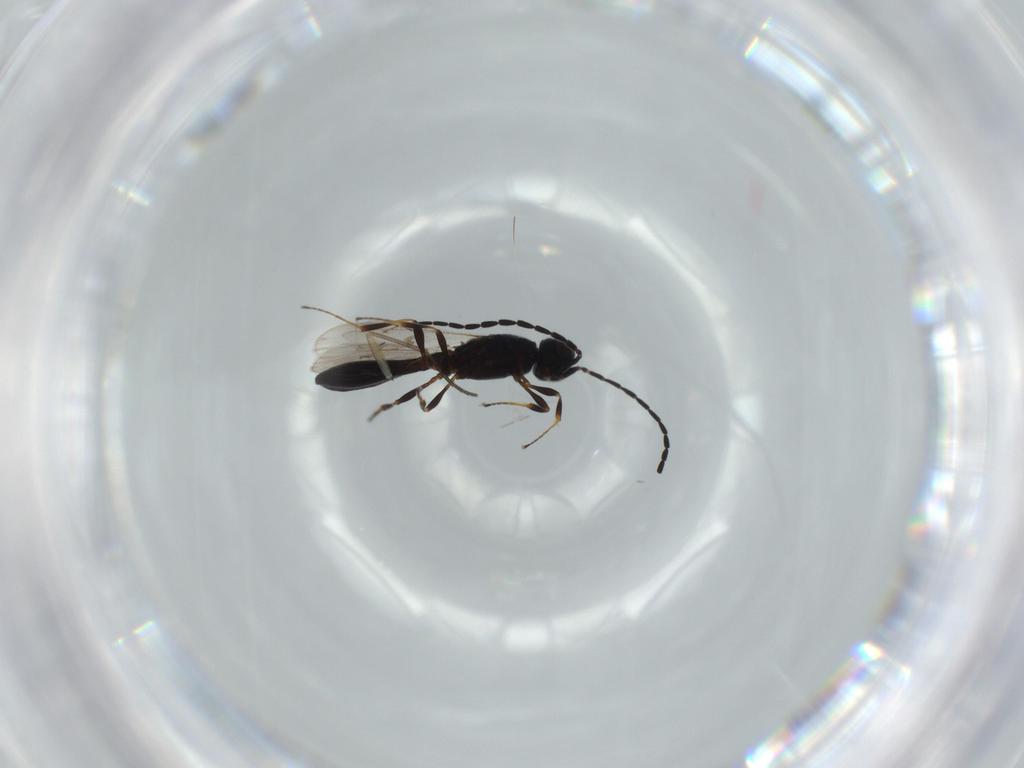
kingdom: Animalia
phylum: Arthropoda
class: Insecta
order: Hymenoptera
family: Mymaridae
